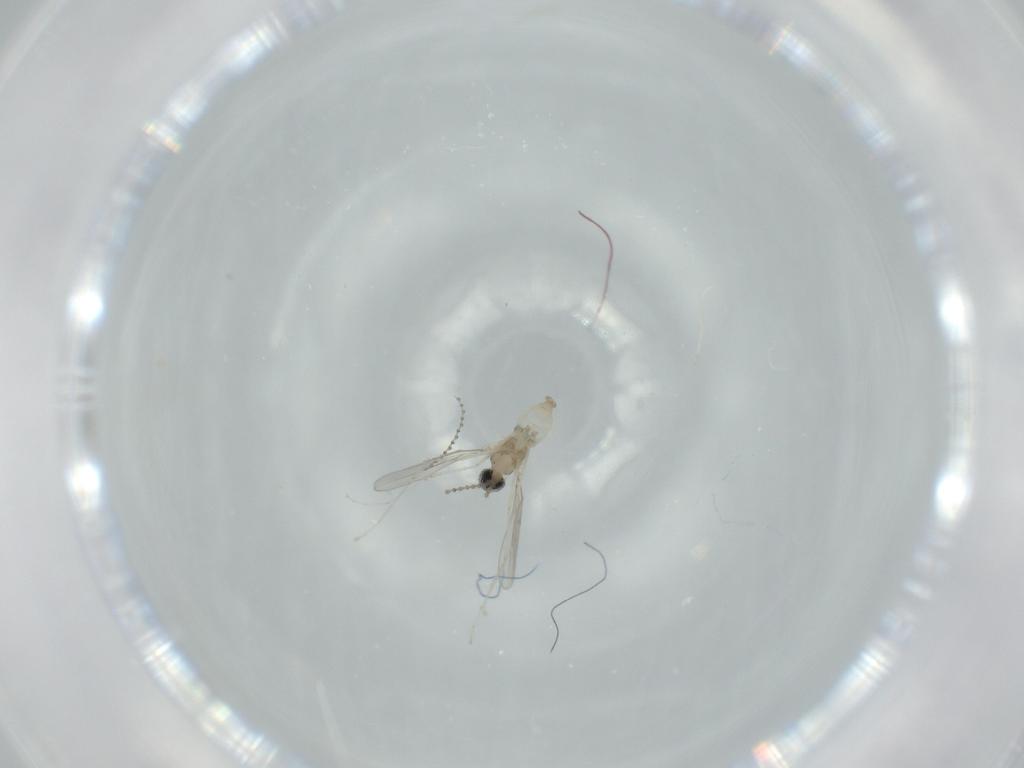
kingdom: Animalia
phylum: Arthropoda
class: Insecta
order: Diptera
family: Cecidomyiidae
